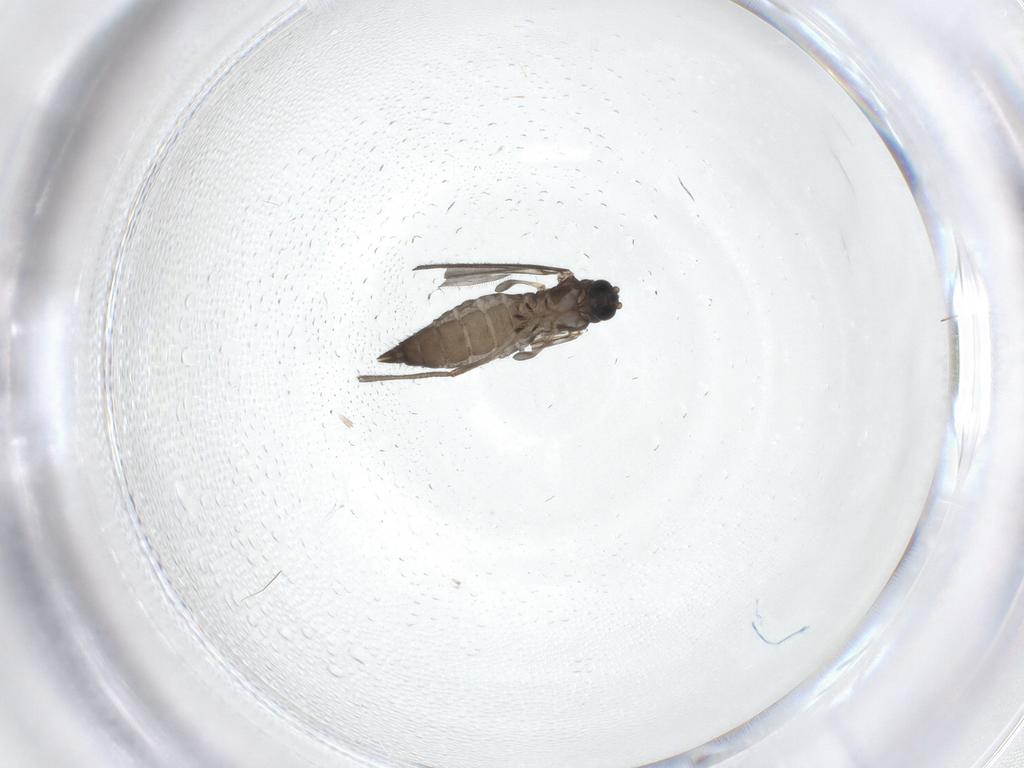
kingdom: Animalia
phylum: Arthropoda
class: Insecta
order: Diptera
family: Sciaridae
